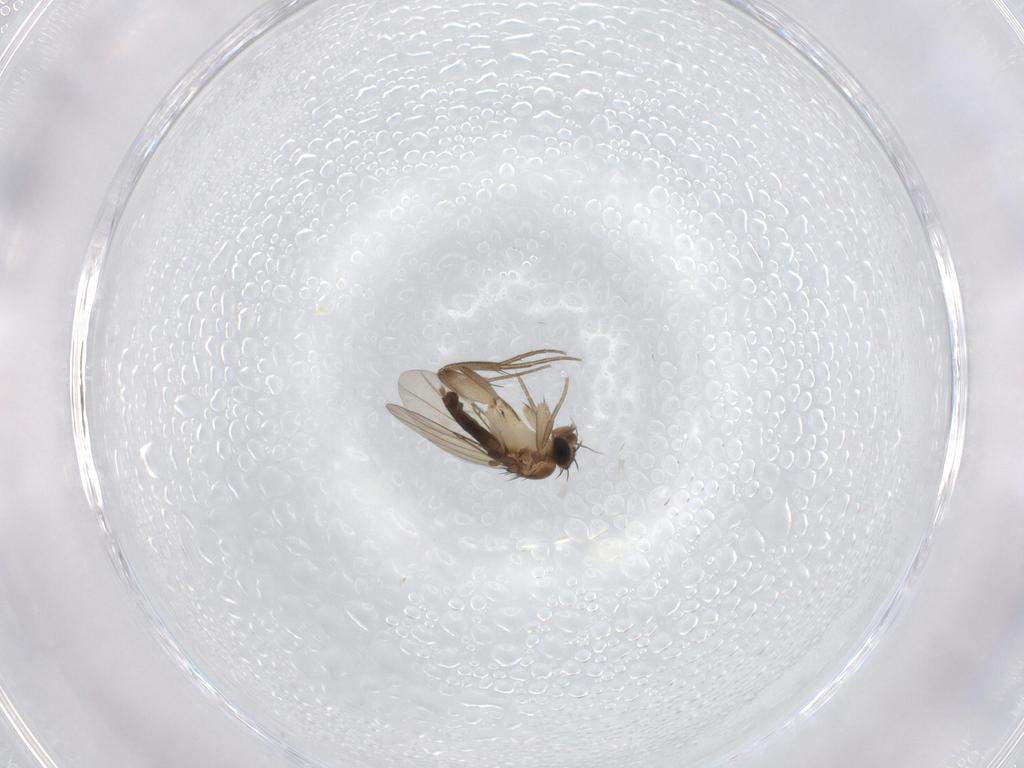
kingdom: Animalia
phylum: Arthropoda
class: Insecta
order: Diptera
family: Phoridae
